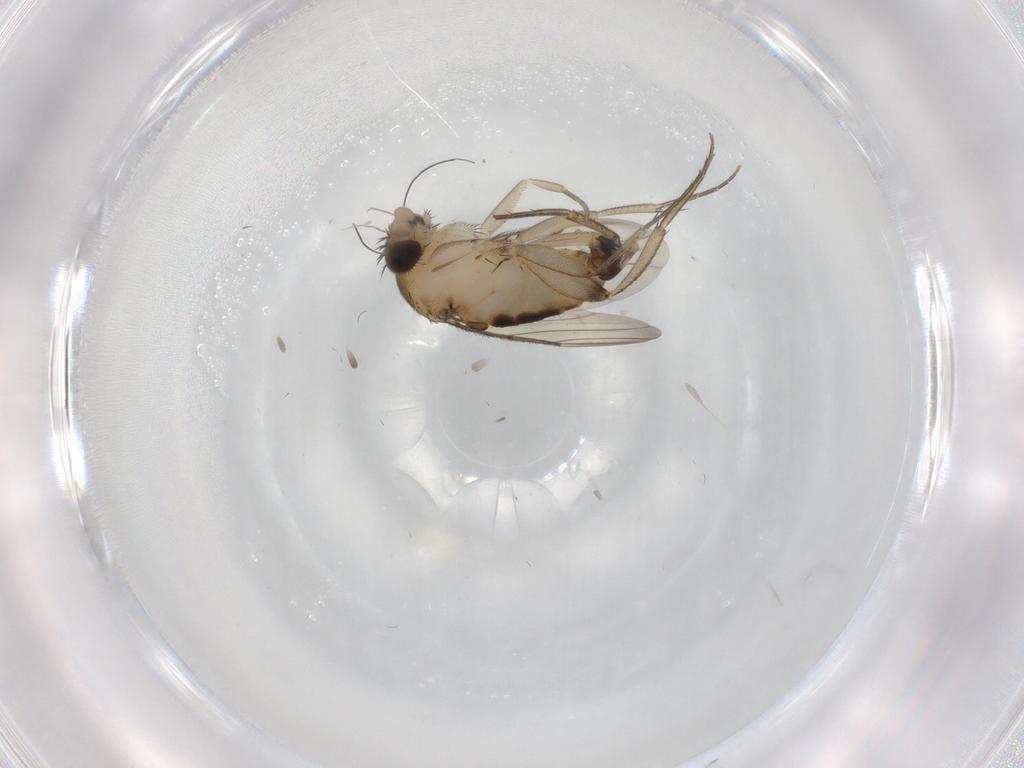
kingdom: Animalia
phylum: Arthropoda
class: Insecta
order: Diptera
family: Phoridae
